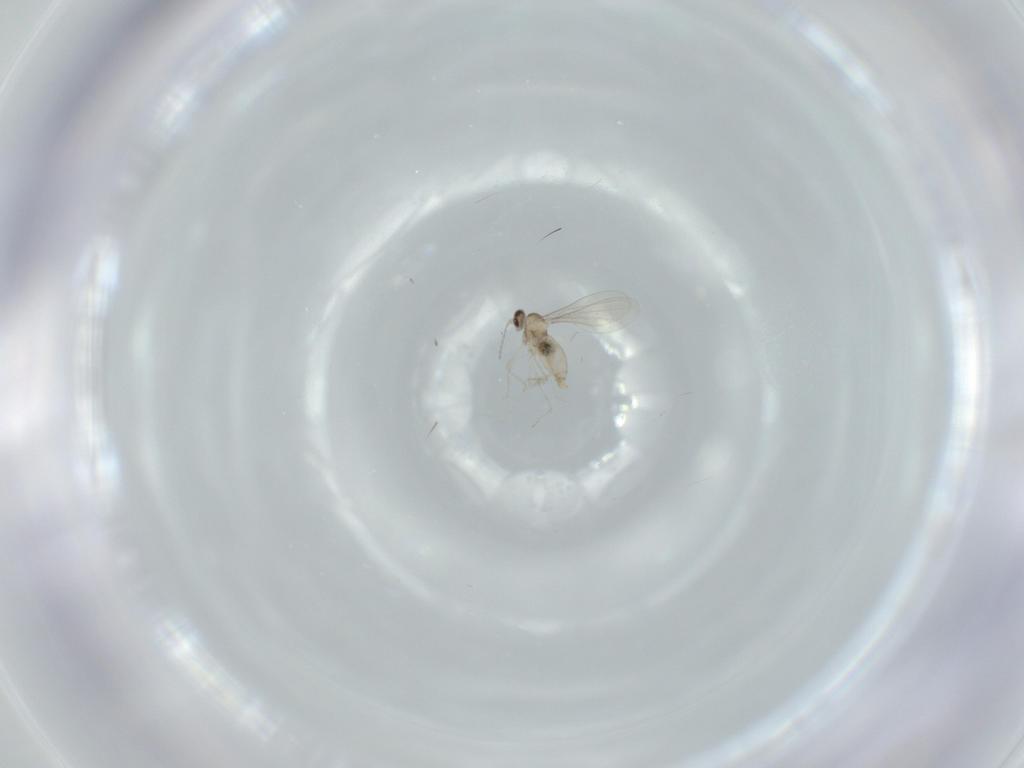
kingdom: Animalia
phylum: Arthropoda
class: Insecta
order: Diptera
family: Cecidomyiidae
